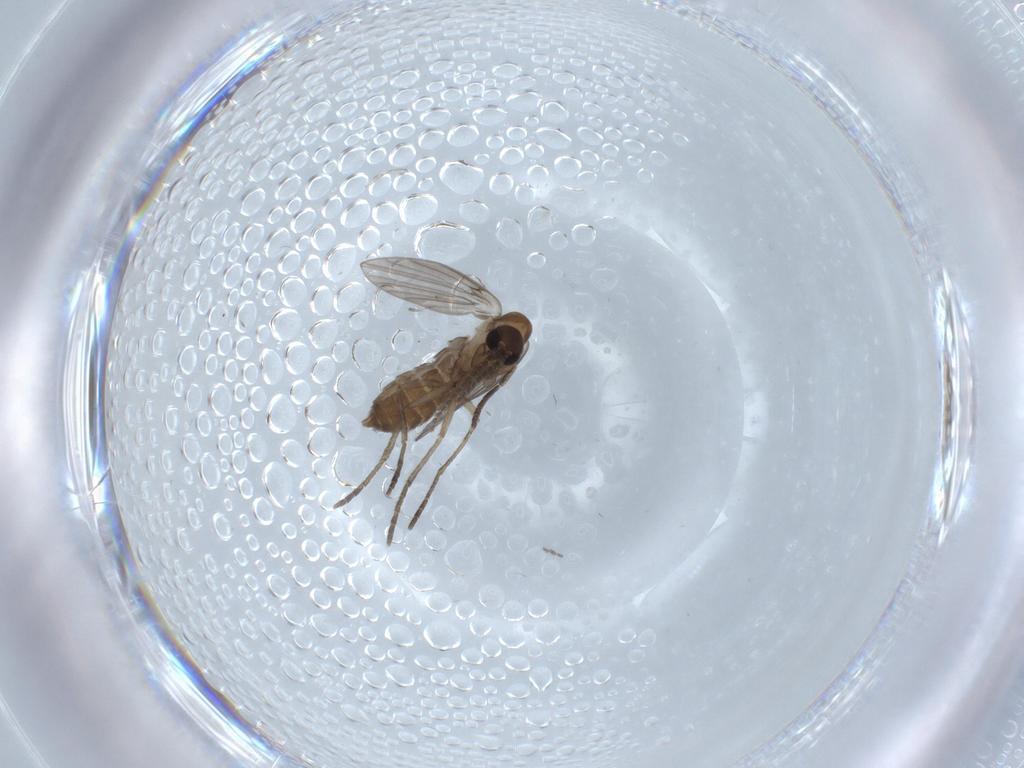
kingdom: Animalia
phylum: Arthropoda
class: Insecta
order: Diptera
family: Psychodidae
